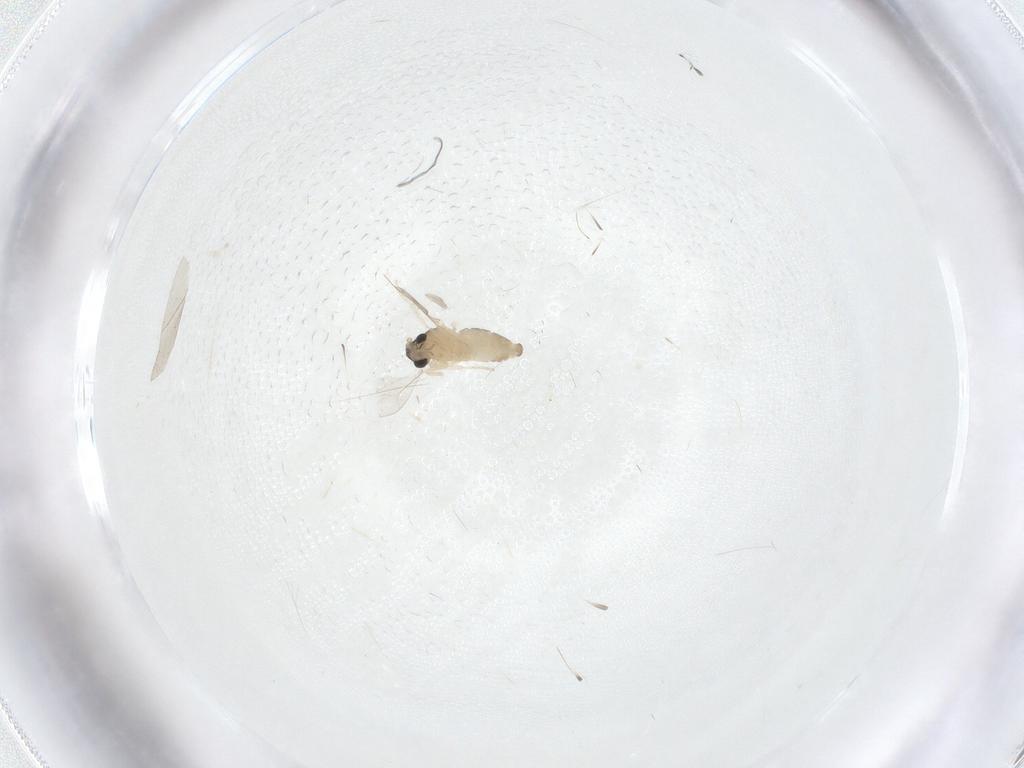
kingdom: Animalia
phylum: Arthropoda
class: Insecta
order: Diptera
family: Cecidomyiidae
